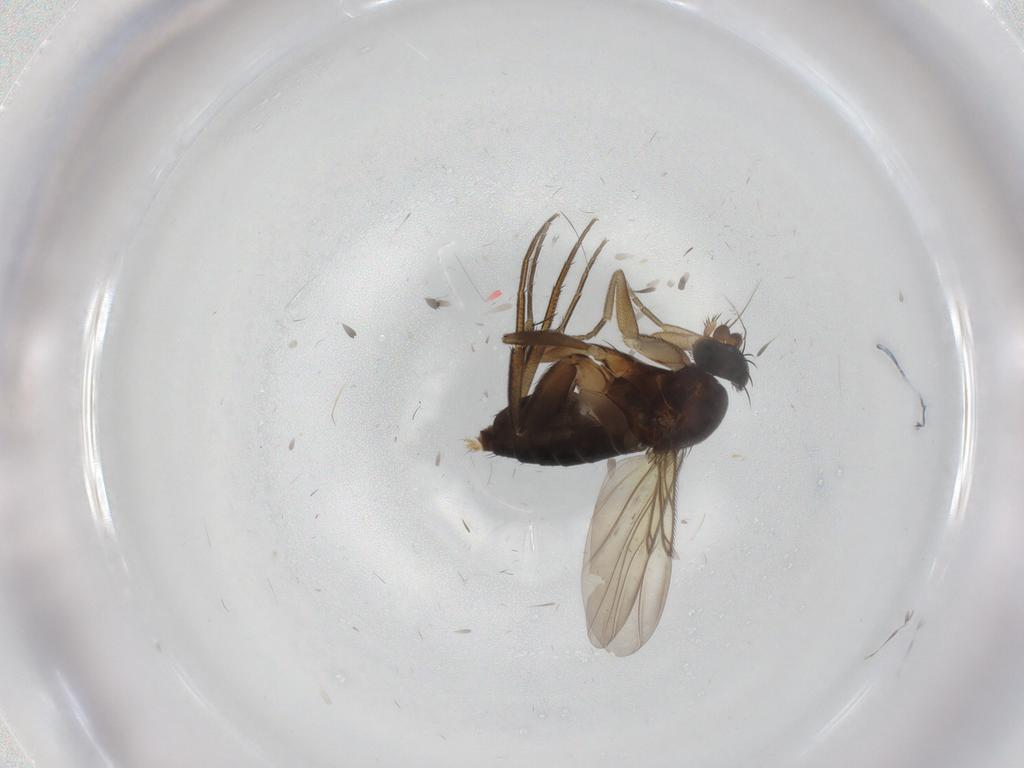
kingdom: Animalia
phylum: Arthropoda
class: Insecta
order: Diptera
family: Phoridae
